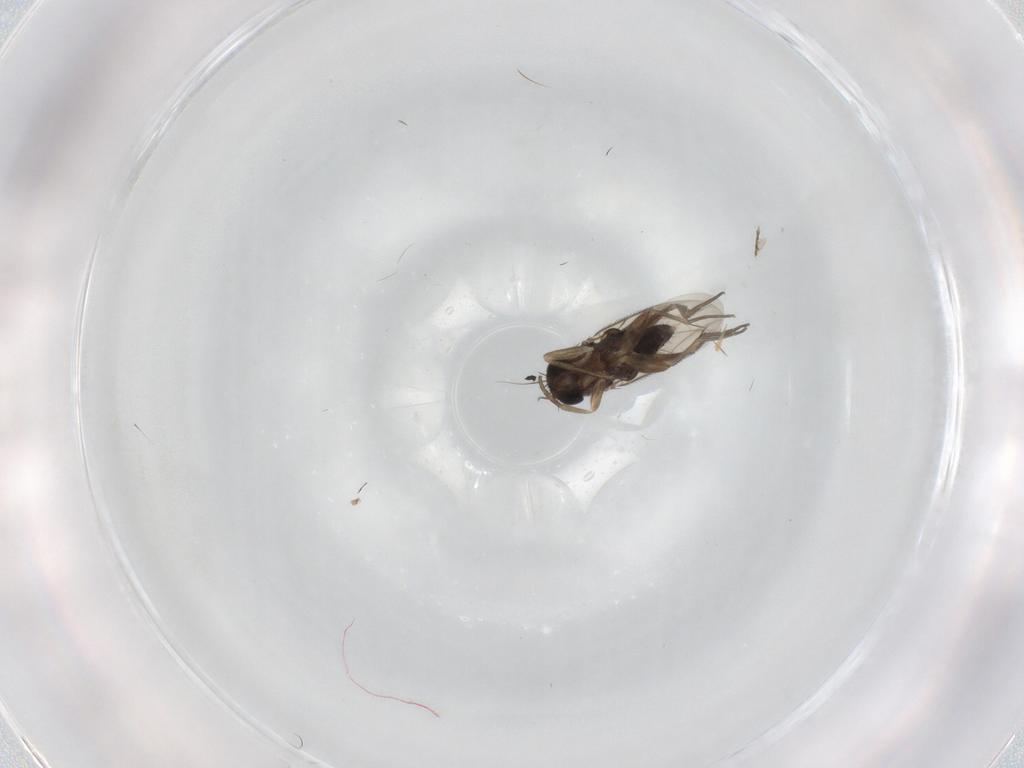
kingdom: Animalia
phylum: Arthropoda
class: Insecta
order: Diptera
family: Phoridae
